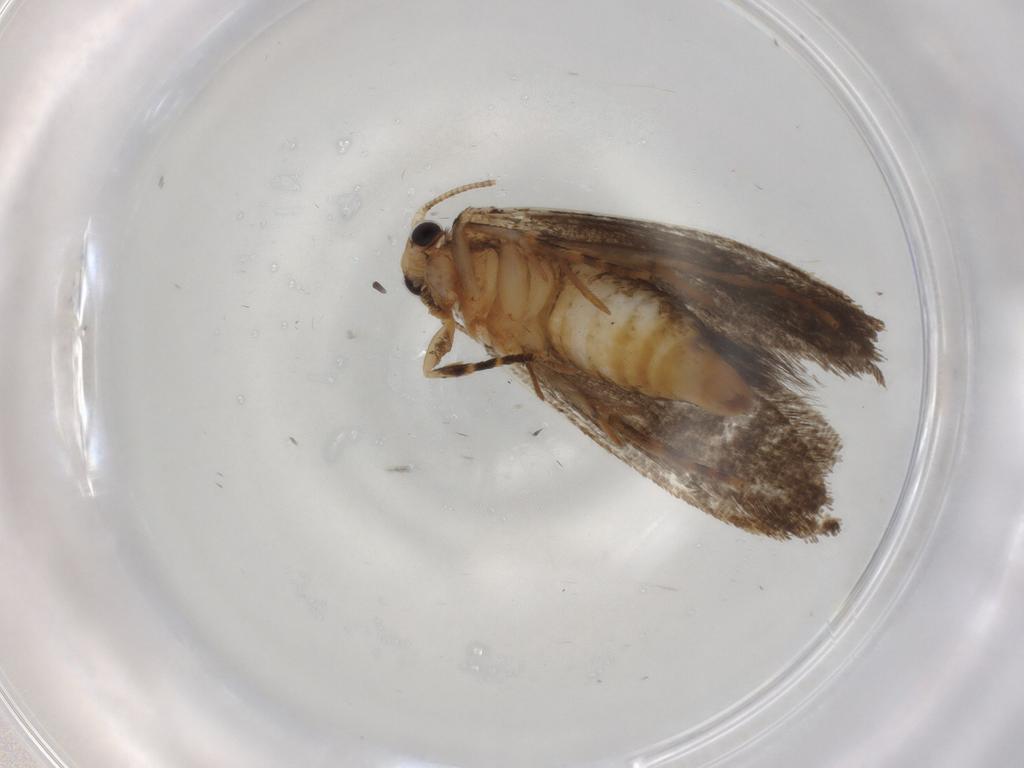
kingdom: Animalia
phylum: Arthropoda
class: Insecta
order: Lepidoptera
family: Tineidae
